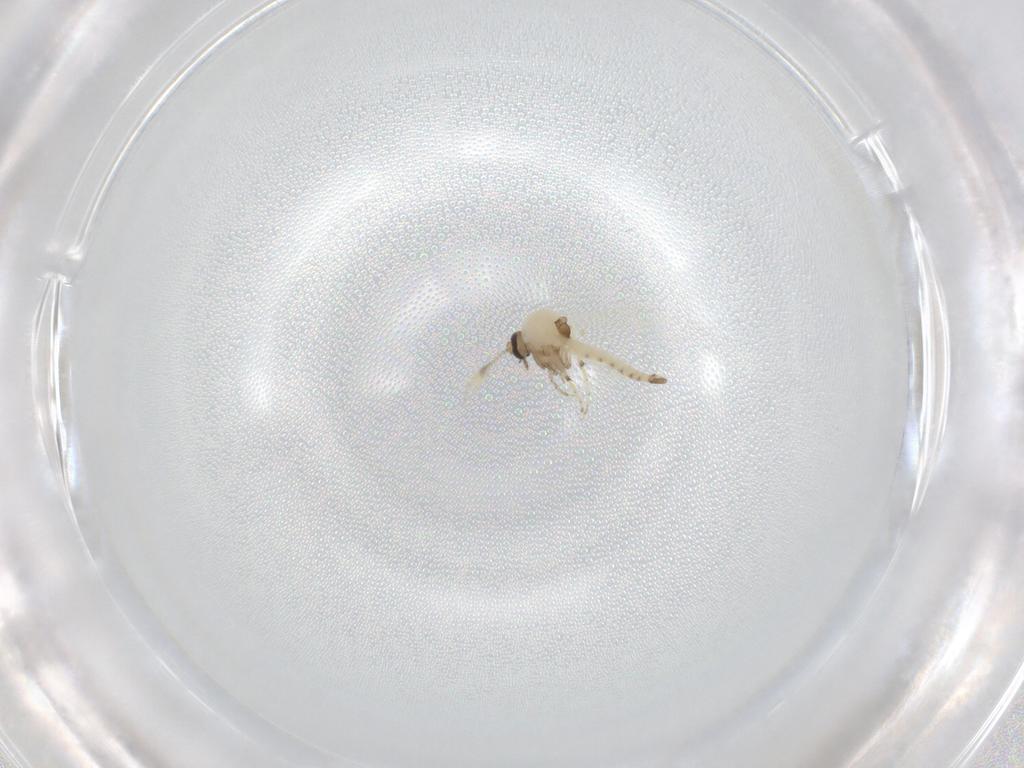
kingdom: Animalia
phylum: Arthropoda
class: Insecta
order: Diptera
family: Ceratopogonidae
